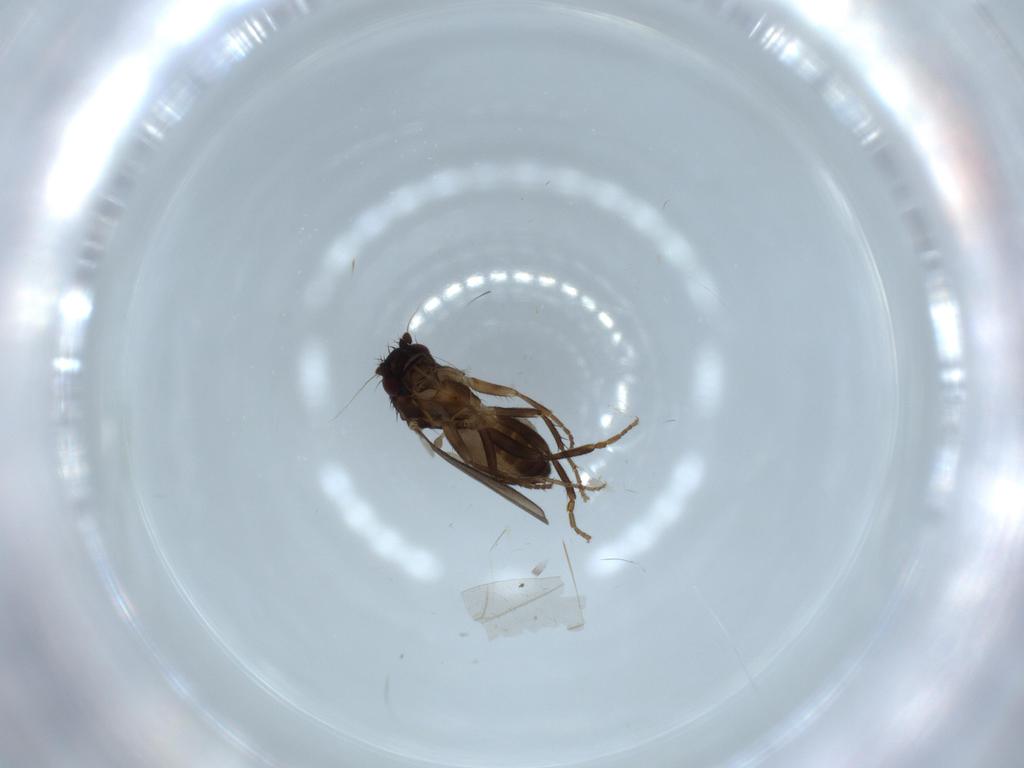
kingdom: Animalia
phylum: Arthropoda
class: Insecta
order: Diptera
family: Sphaeroceridae
